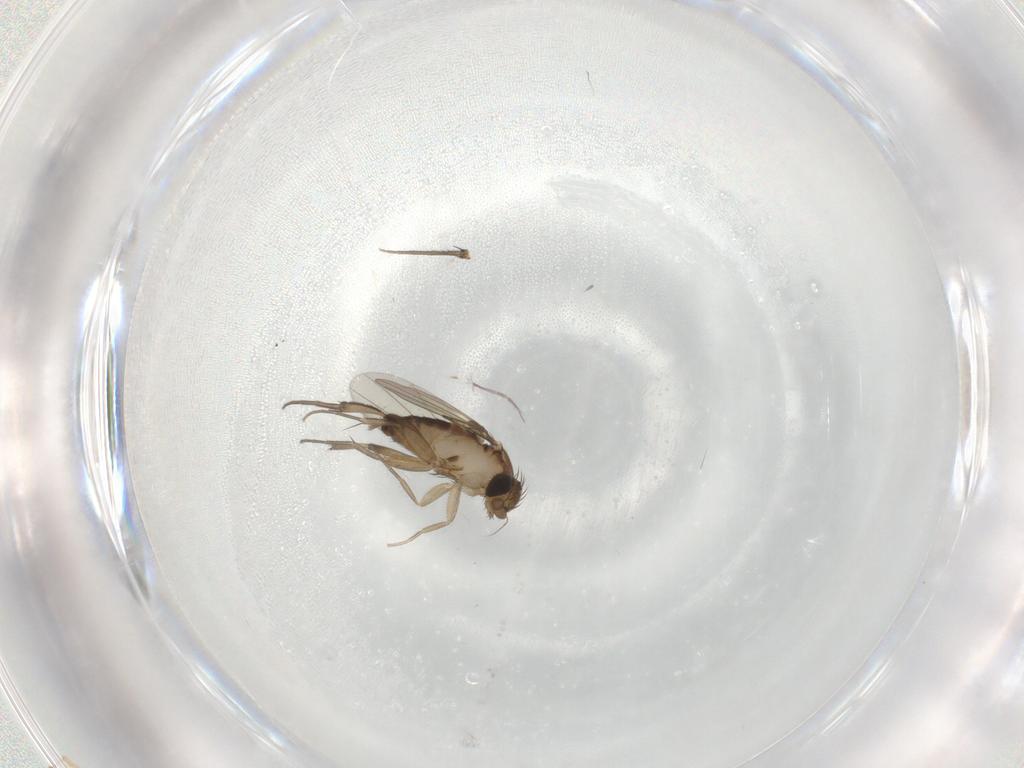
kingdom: Animalia
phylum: Arthropoda
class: Insecta
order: Diptera
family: Phoridae
